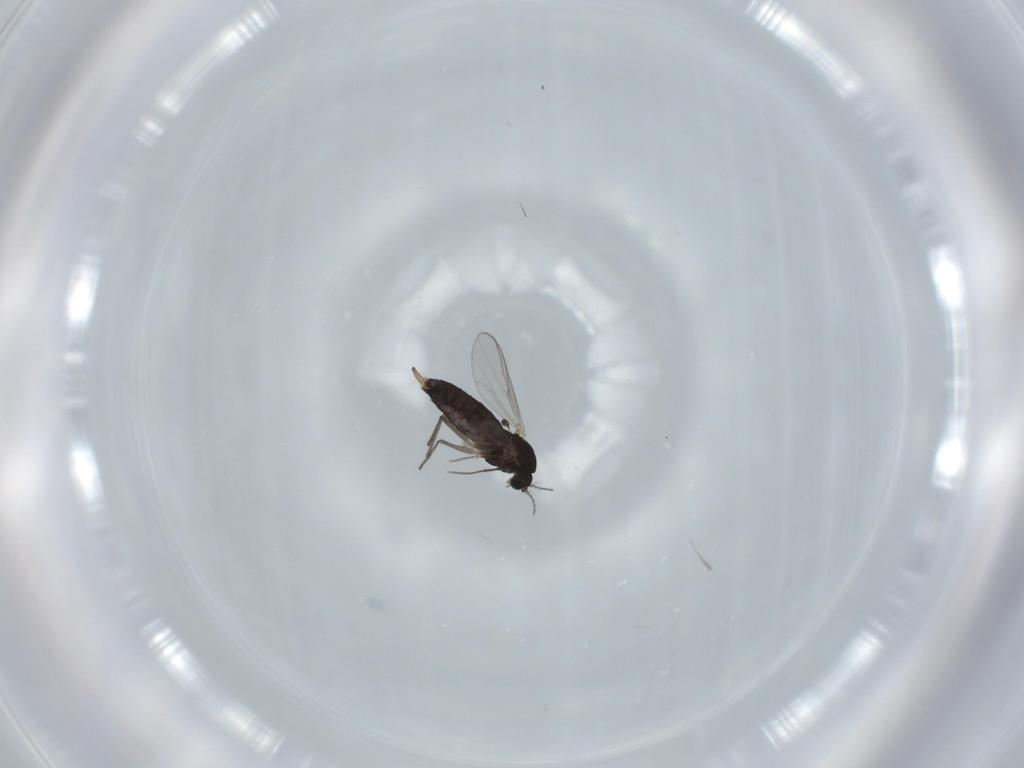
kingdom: Animalia
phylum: Arthropoda
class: Insecta
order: Diptera
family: Chironomidae
